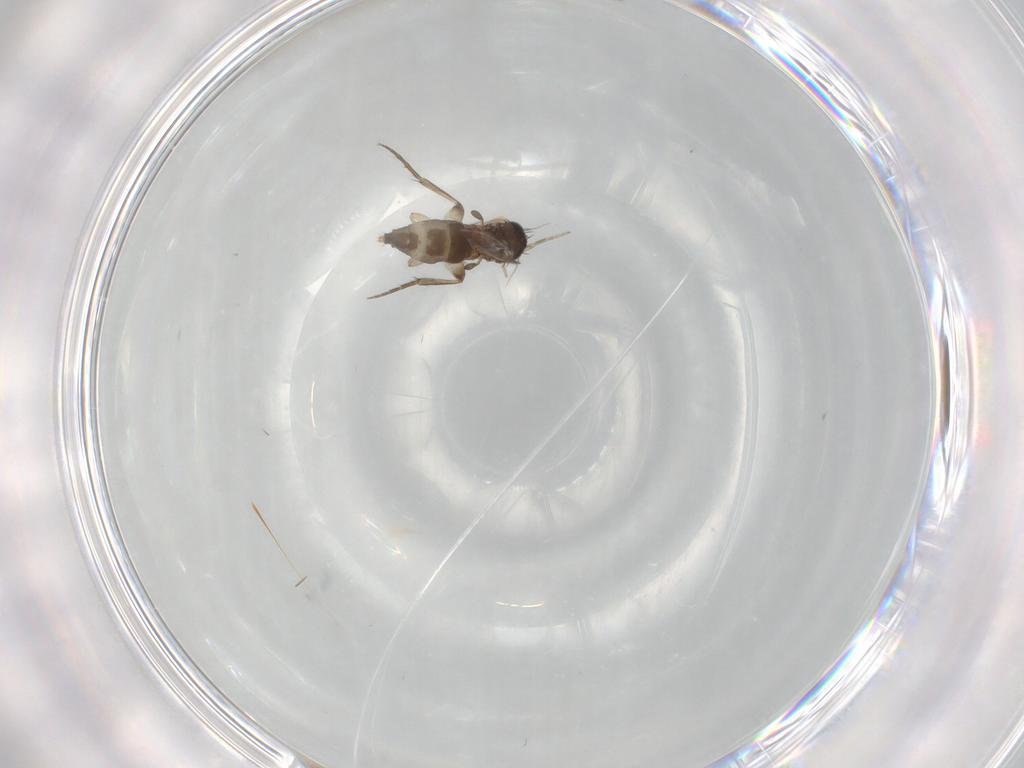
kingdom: Animalia
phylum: Arthropoda
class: Insecta
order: Diptera
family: Phoridae
